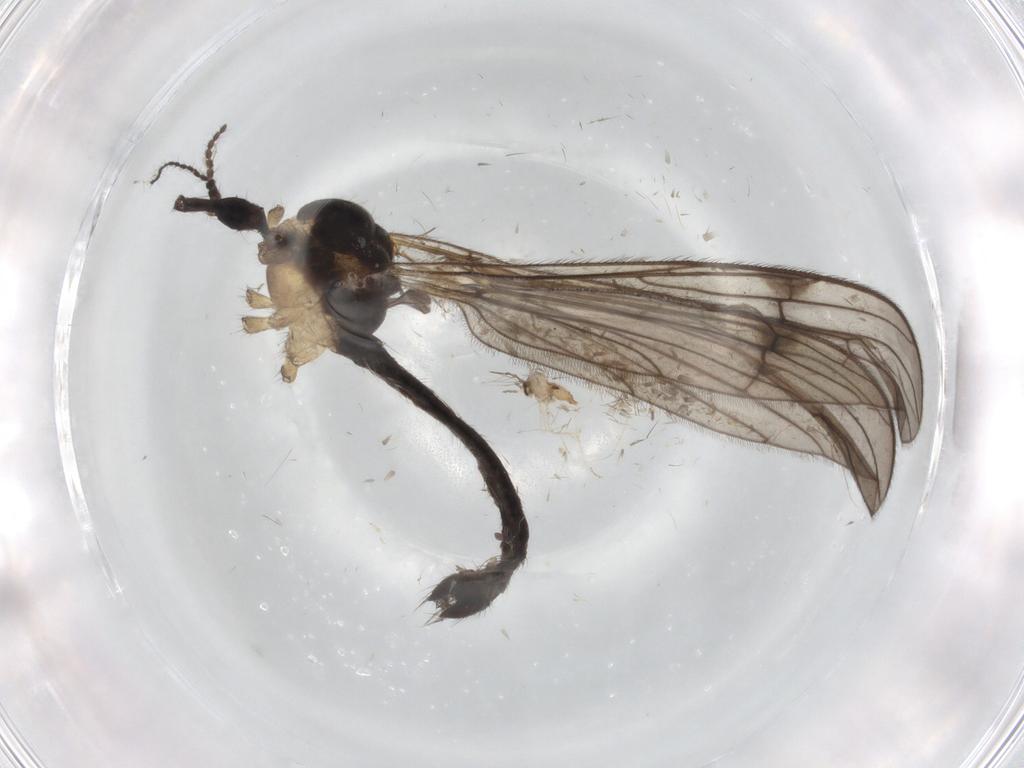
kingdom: Animalia
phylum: Arthropoda
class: Insecta
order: Diptera
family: Limoniidae
